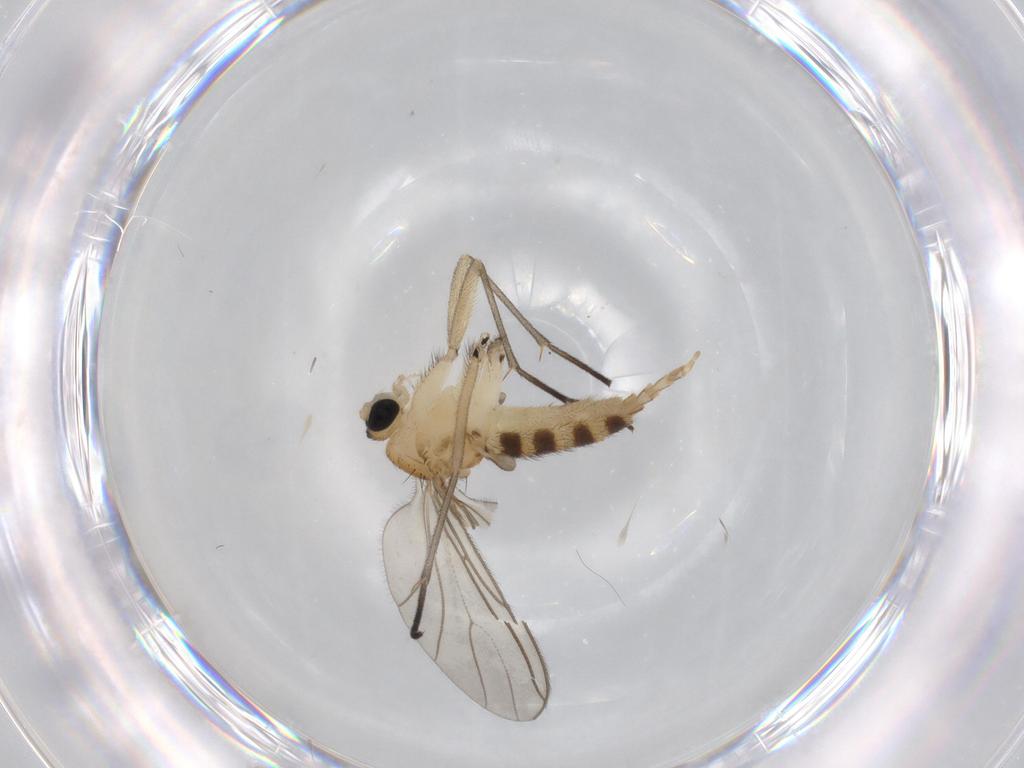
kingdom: Animalia
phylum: Arthropoda
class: Insecta
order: Diptera
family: Sciaridae
